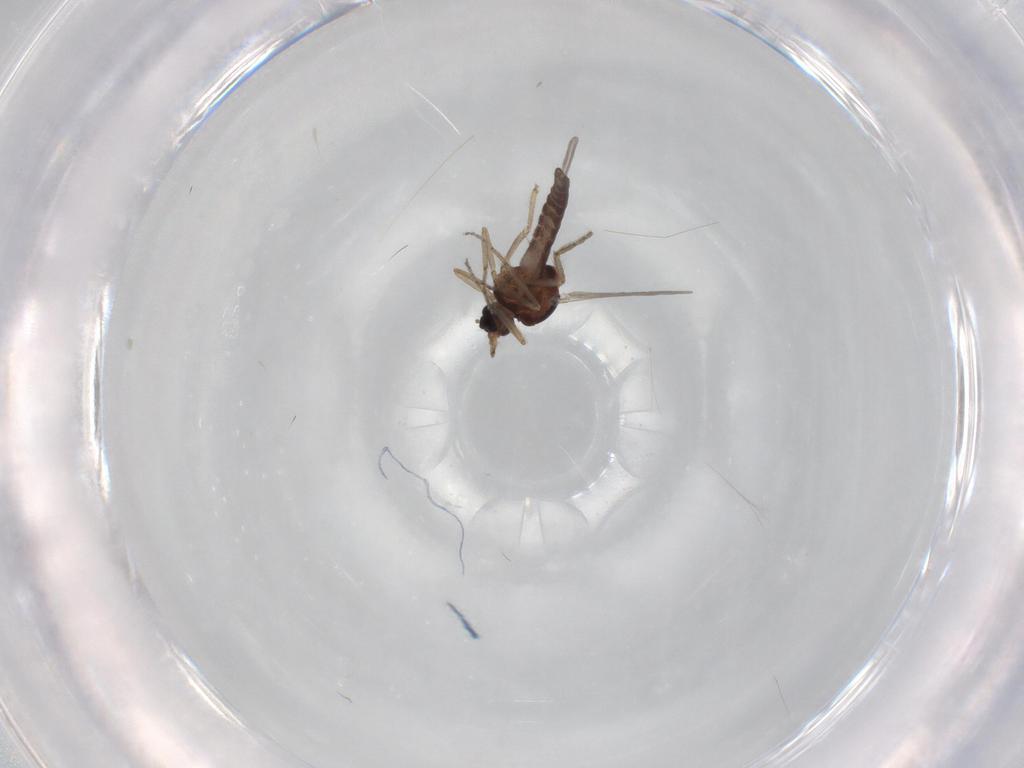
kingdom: Animalia
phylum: Arthropoda
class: Insecta
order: Diptera
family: Ceratopogonidae
